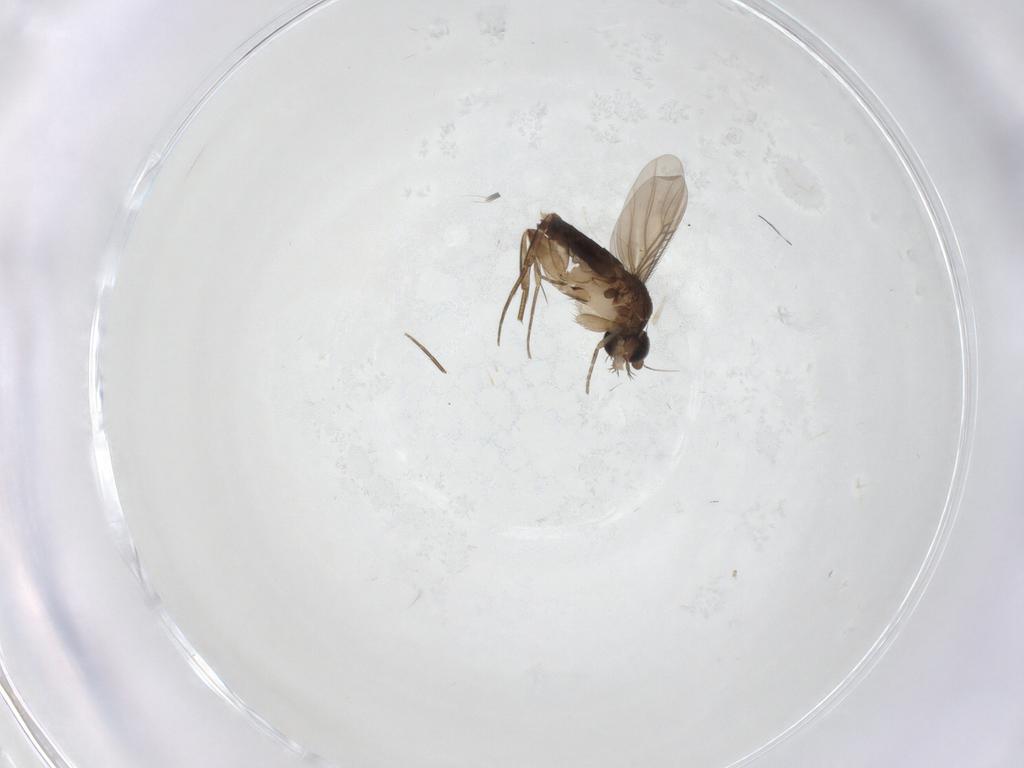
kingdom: Animalia
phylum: Arthropoda
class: Insecta
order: Diptera
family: Phoridae
